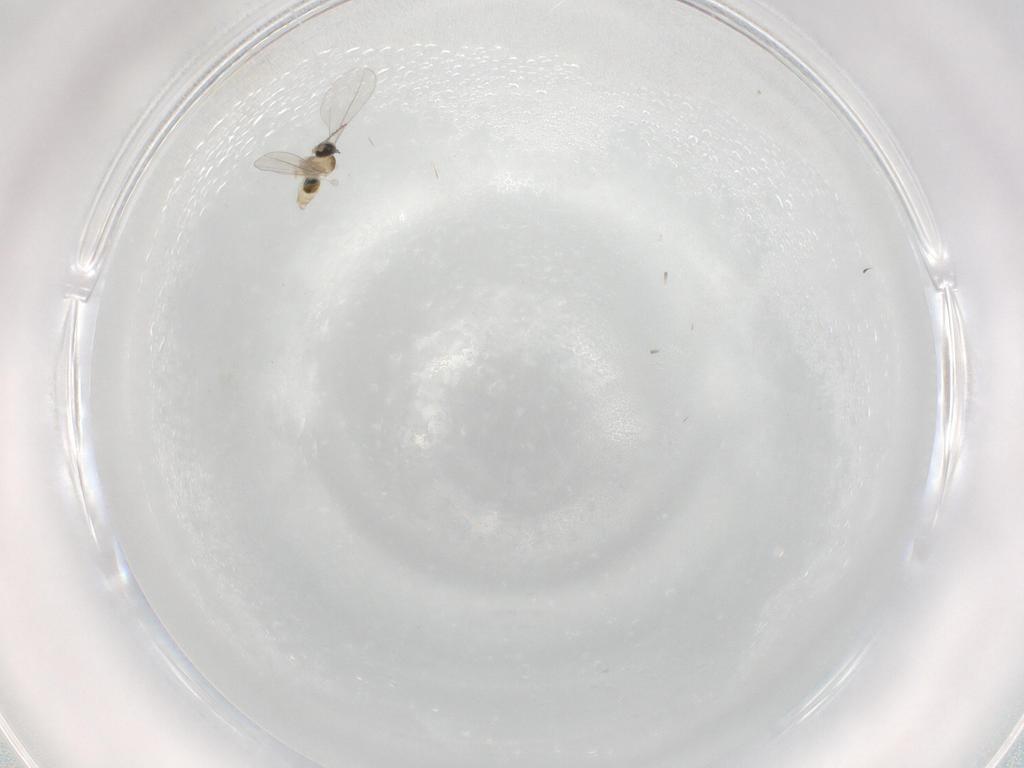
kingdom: Animalia
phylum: Arthropoda
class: Insecta
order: Diptera
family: Cecidomyiidae
